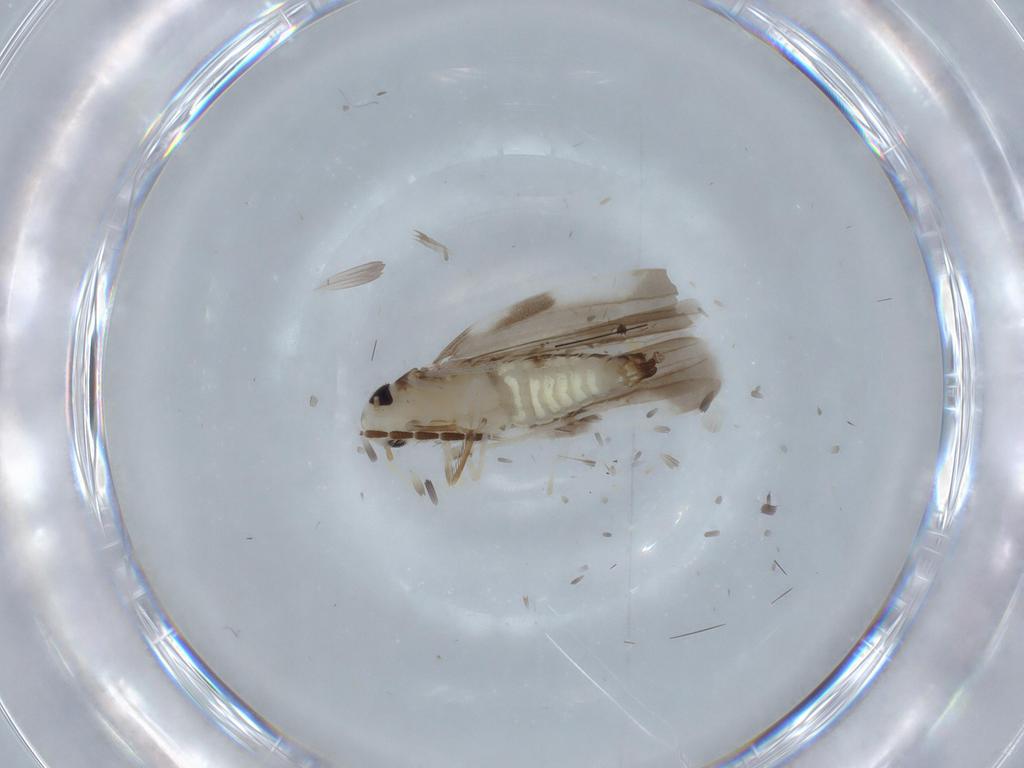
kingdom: Animalia
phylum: Arthropoda
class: Insecta
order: Hemiptera
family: Cicadellidae
